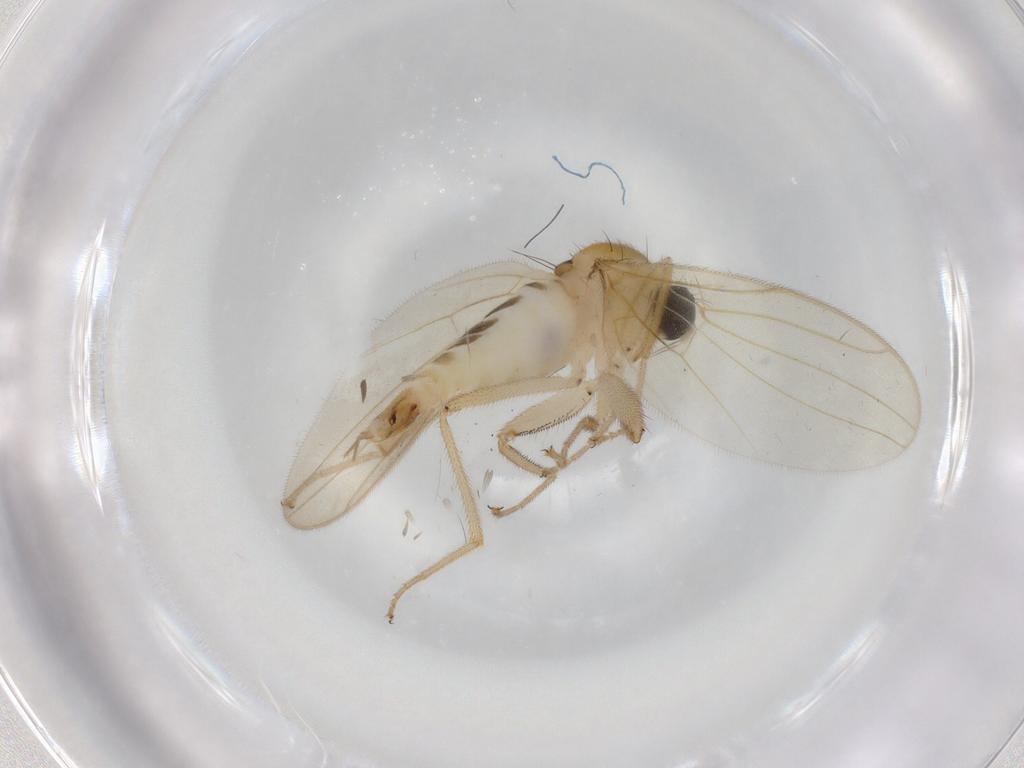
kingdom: Animalia
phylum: Arthropoda
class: Insecta
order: Diptera
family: Hybotidae
